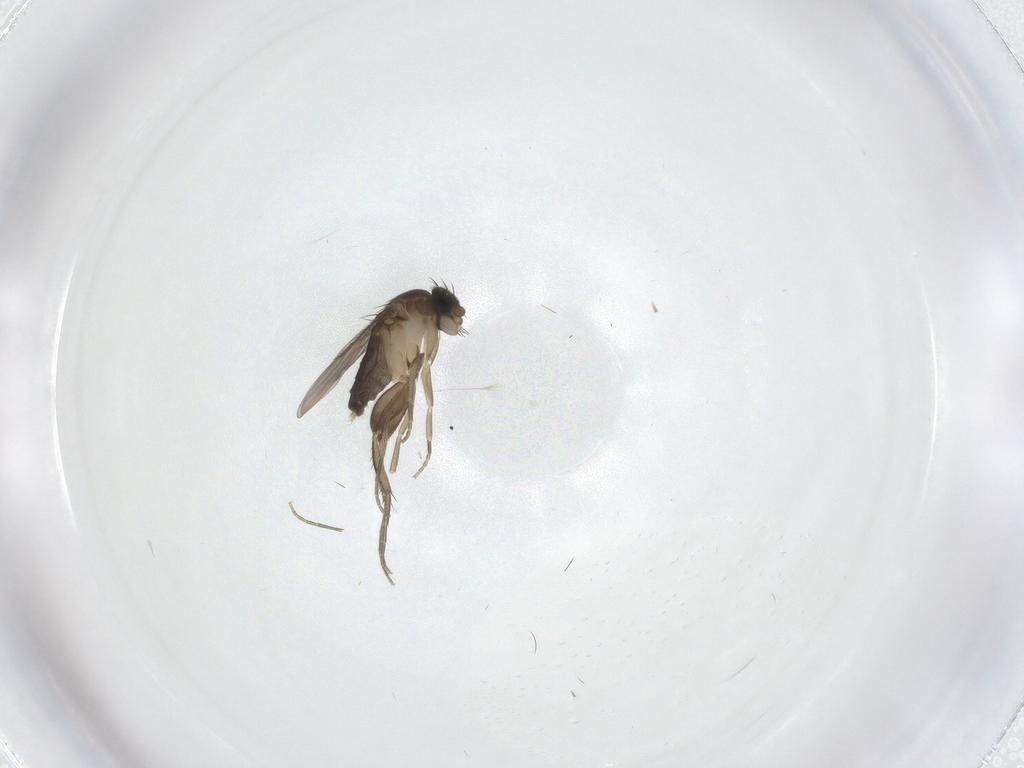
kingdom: Animalia
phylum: Arthropoda
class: Insecta
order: Diptera
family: Phoridae
